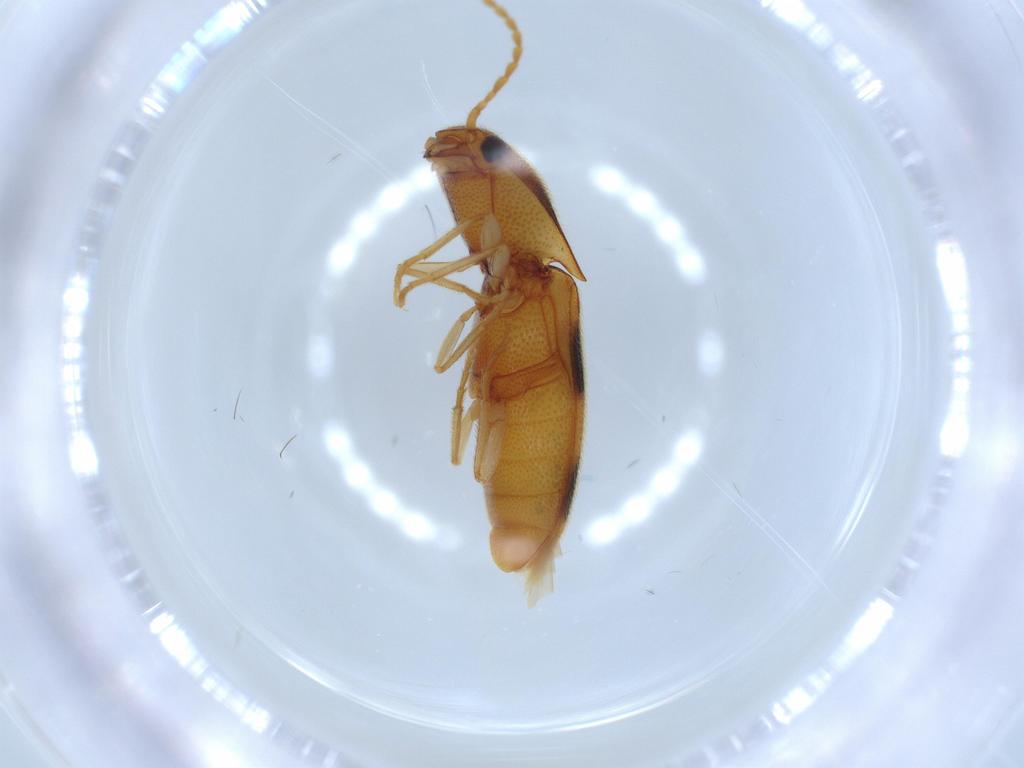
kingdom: Animalia
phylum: Arthropoda
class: Insecta
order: Coleoptera
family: Elateridae
